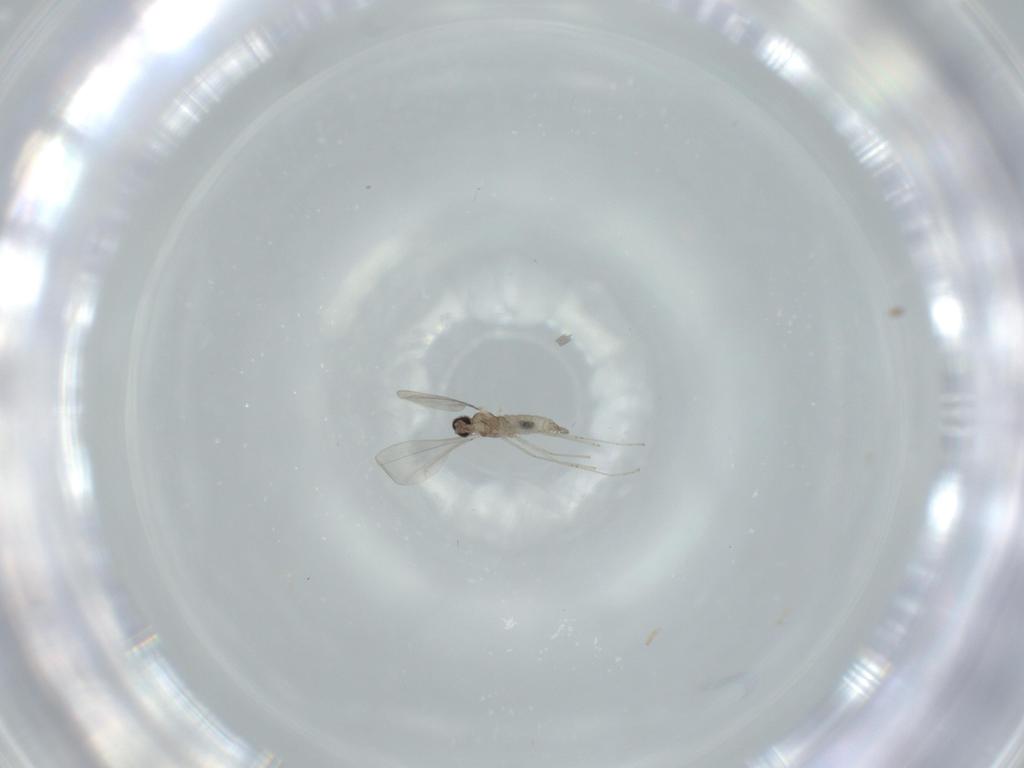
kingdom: Animalia
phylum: Arthropoda
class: Insecta
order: Diptera
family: Cecidomyiidae
